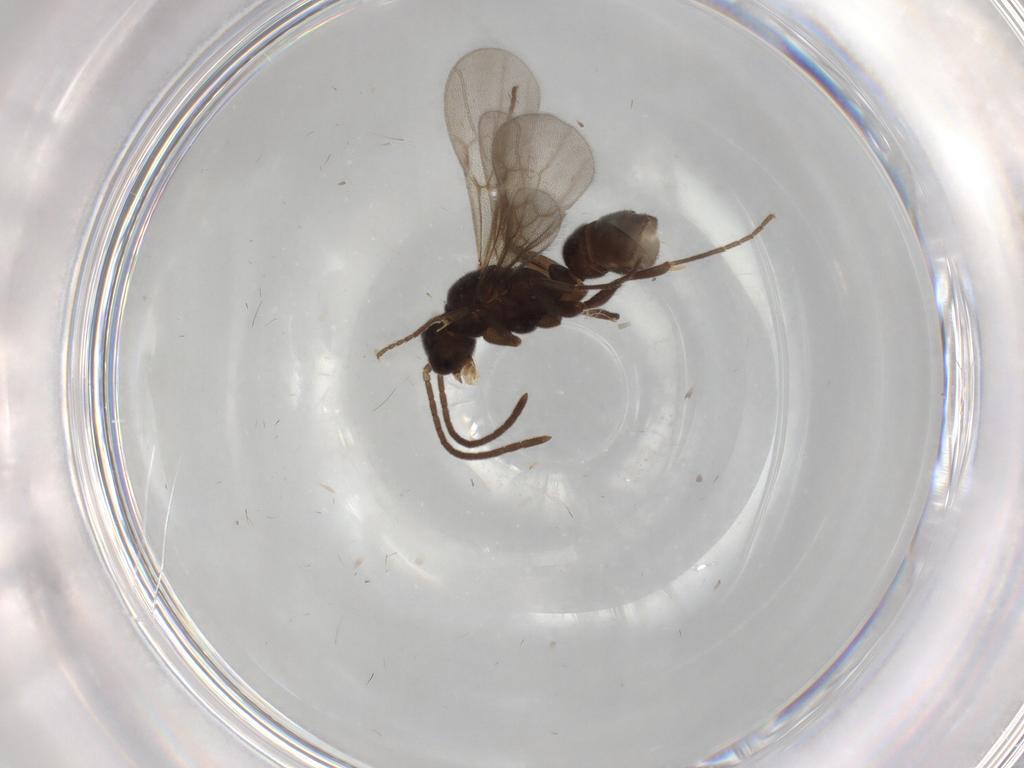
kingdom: Animalia
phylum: Arthropoda
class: Insecta
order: Hymenoptera
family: Formicidae
